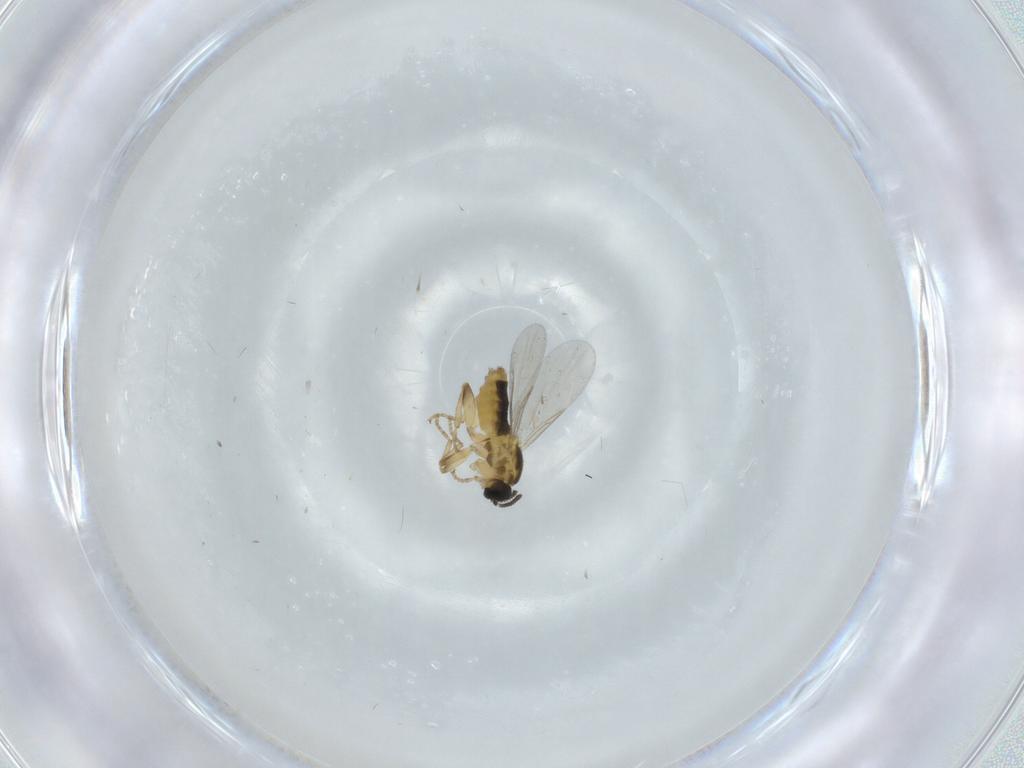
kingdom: Animalia
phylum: Arthropoda
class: Insecta
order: Diptera
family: Scatopsidae
